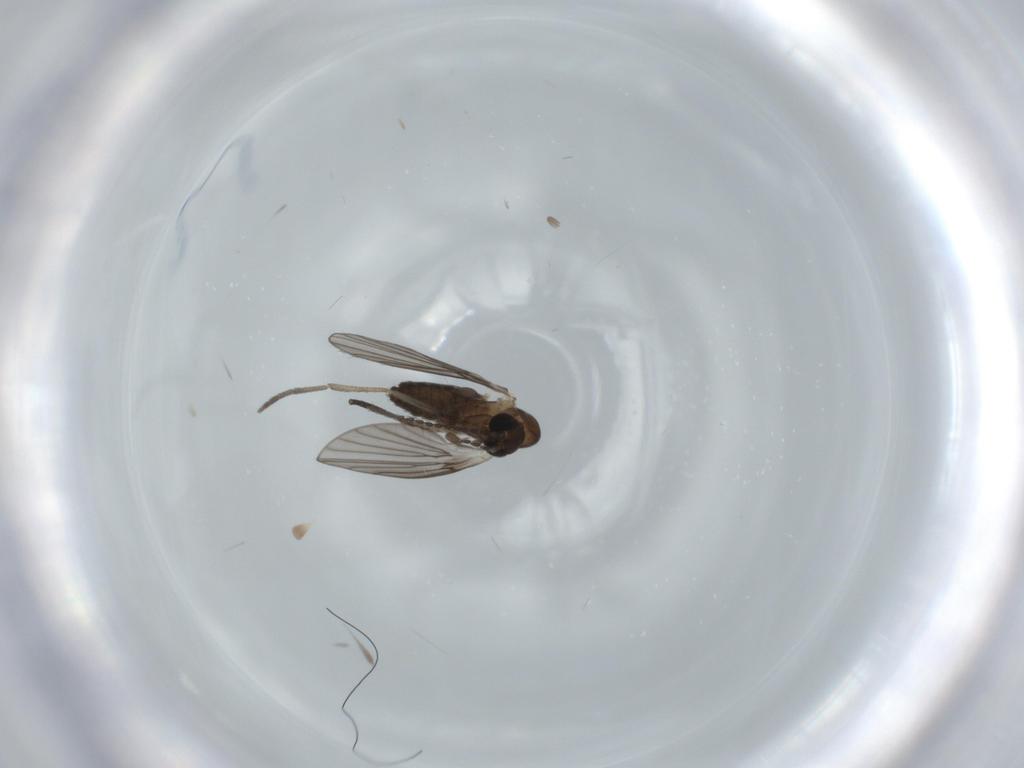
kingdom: Animalia
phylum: Arthropoda
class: Insecta
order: Diptera
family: Psychodidae
